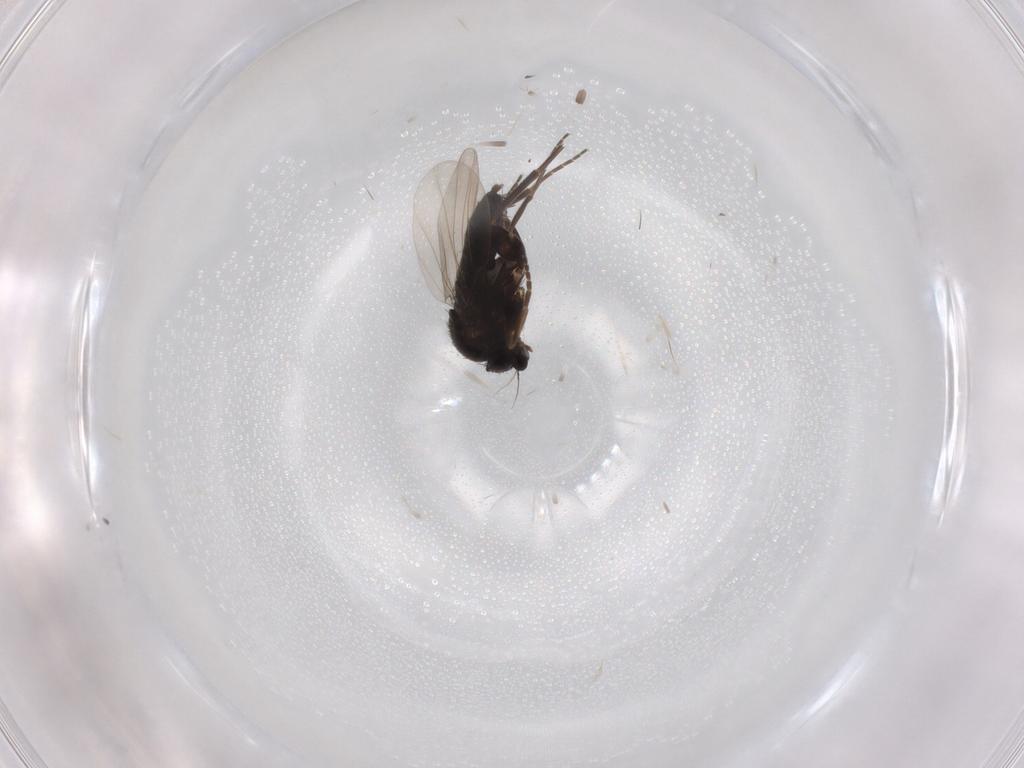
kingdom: Animalia
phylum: Arthropoda
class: Insecta
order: Diptera
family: Phoridae
